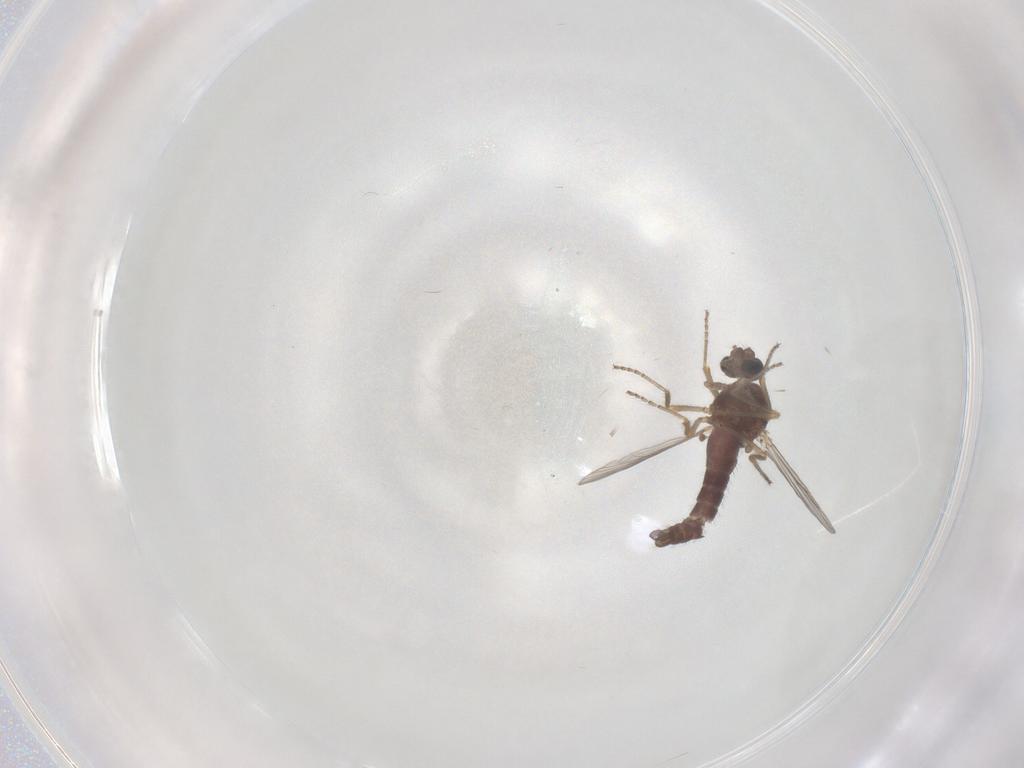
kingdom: Animalia
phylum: Arthropoda
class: Insecta
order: Diptera
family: Ceratopogonidae
